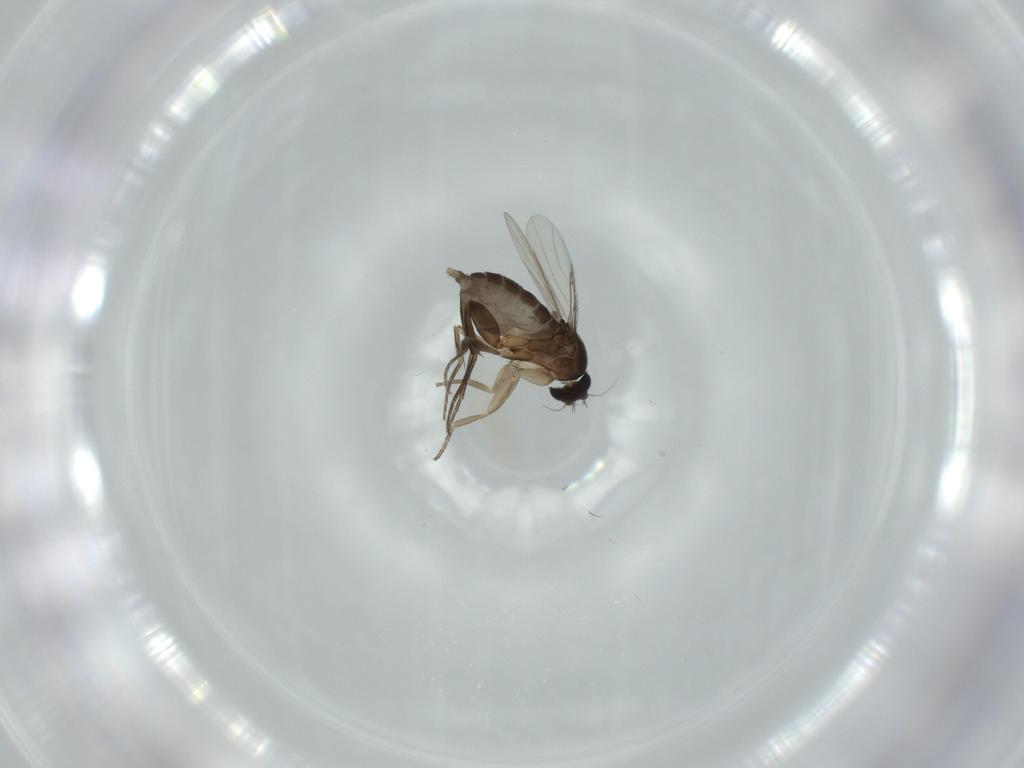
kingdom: Animalia
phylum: Arthropoda
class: Insecta
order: Diptera
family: Phoridae
